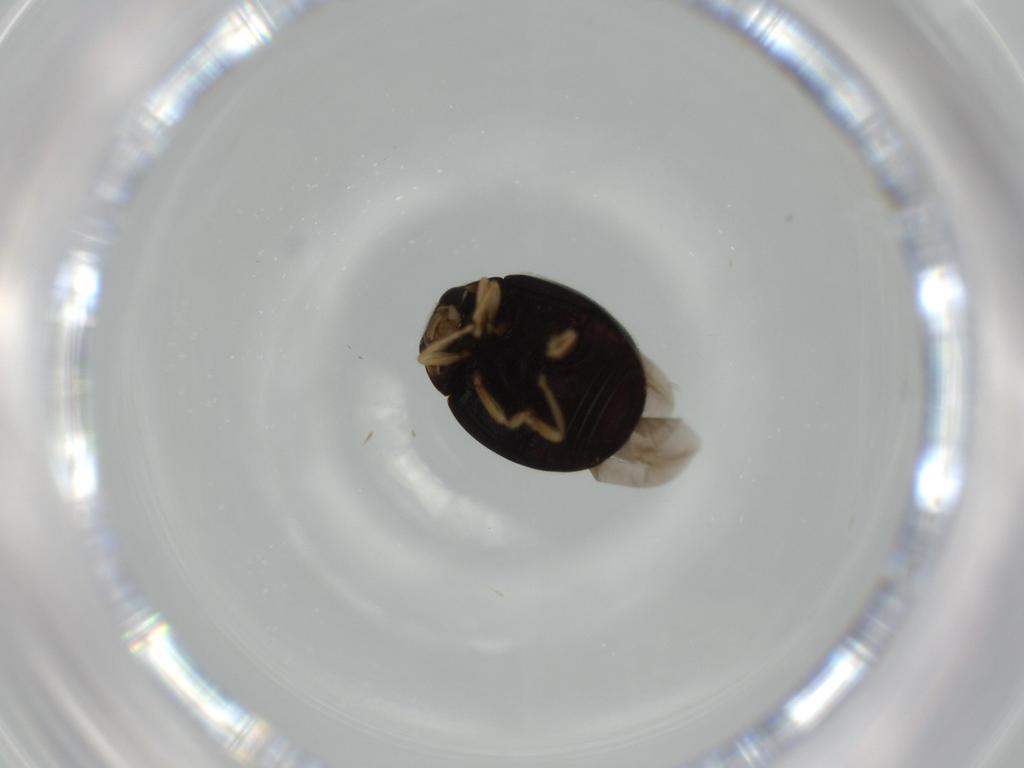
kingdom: Animalia
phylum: Arthropoda
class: Insecta
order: Coleoptera
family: Coccinellidae
